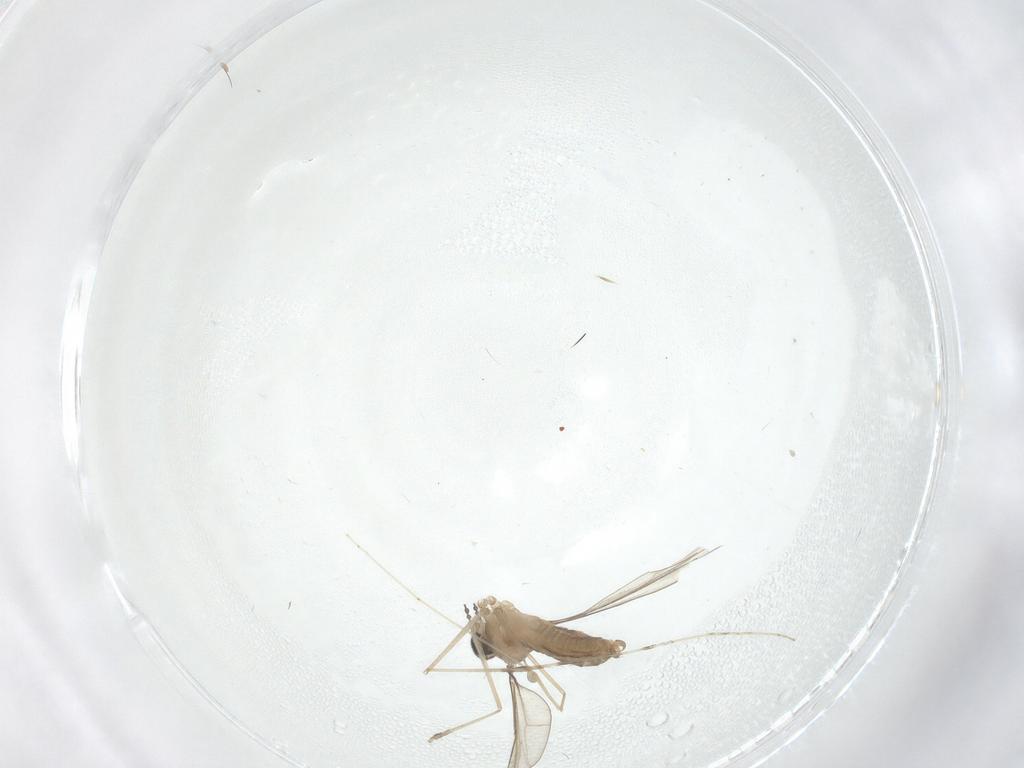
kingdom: Animalia
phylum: Arthropoda
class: Insecta
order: Diptera
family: Cecidomyiidae
